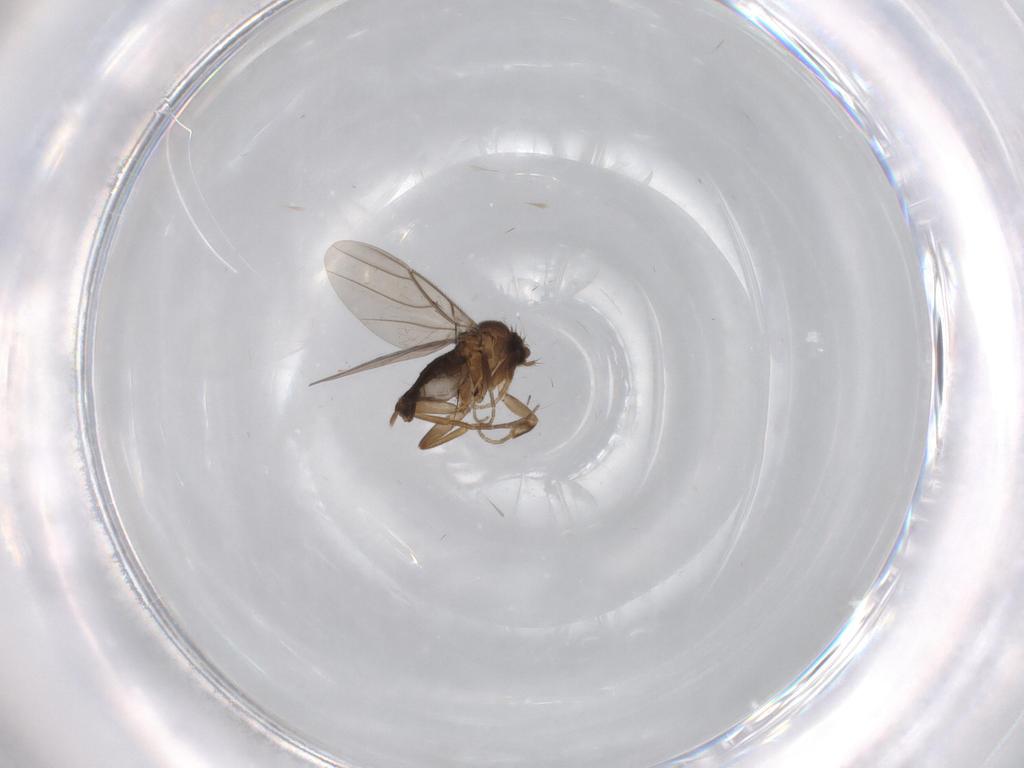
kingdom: Animalia
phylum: Arthropoda
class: Insecta
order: Diptera
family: Phoridae
